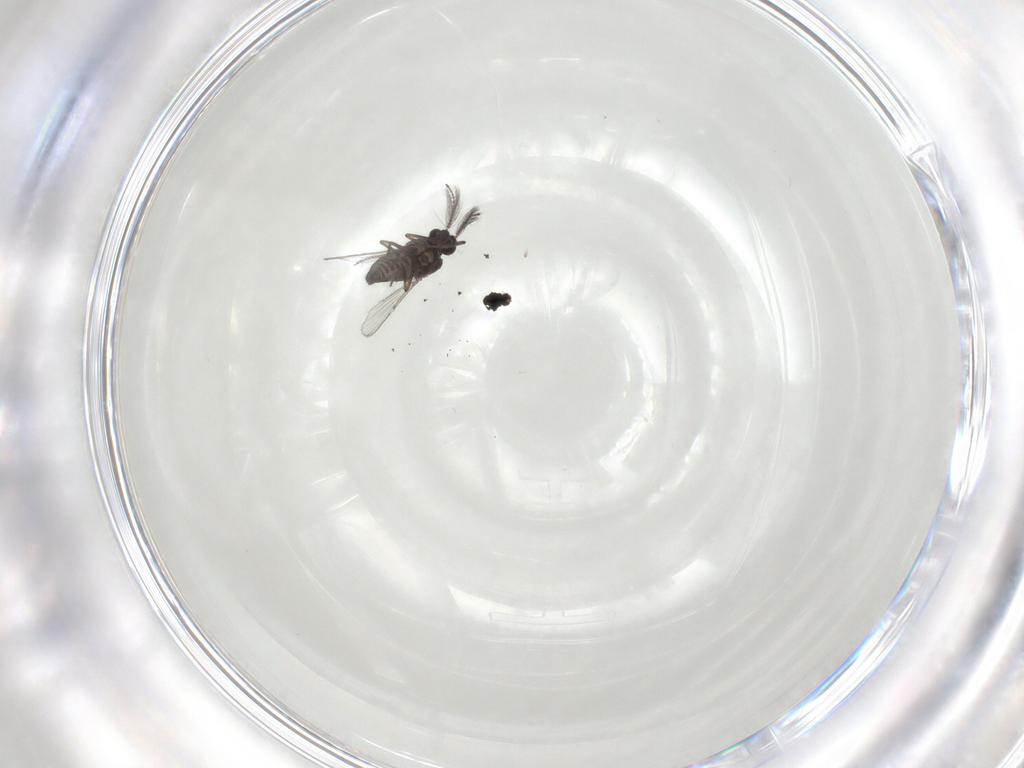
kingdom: Animalia
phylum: Arthropoda
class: Insecta
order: Diptera
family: Ceratopogonidae
